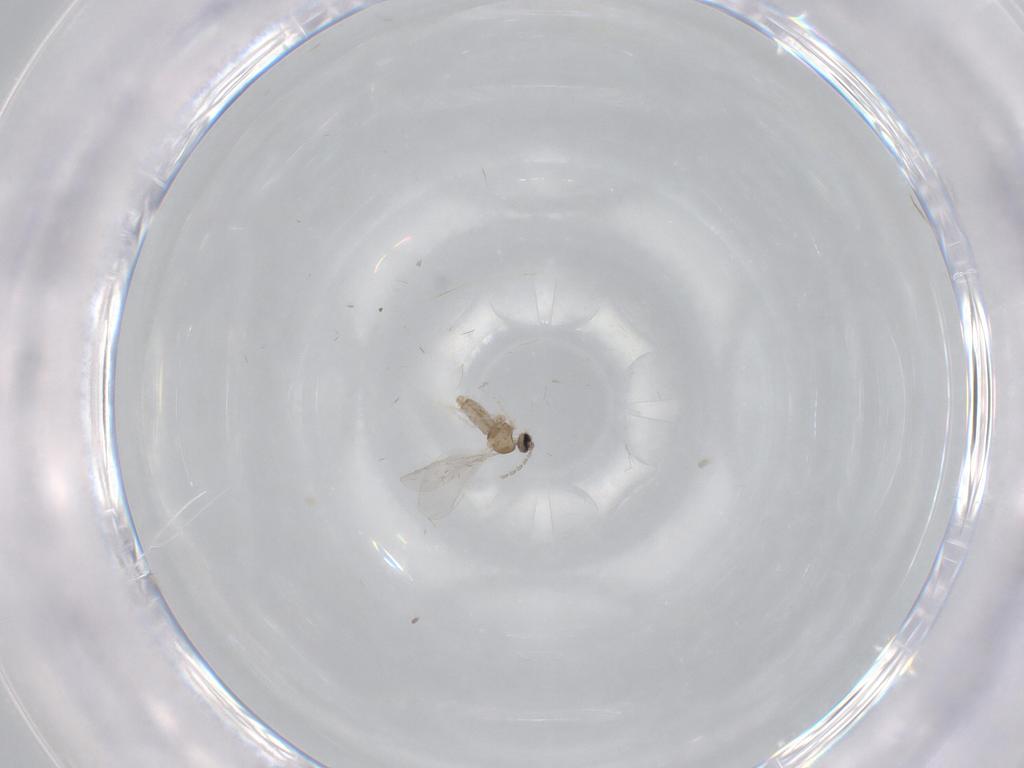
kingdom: Animalia
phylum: Arthropoda
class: Insecta
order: Diptera
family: Cecidomyiidae
